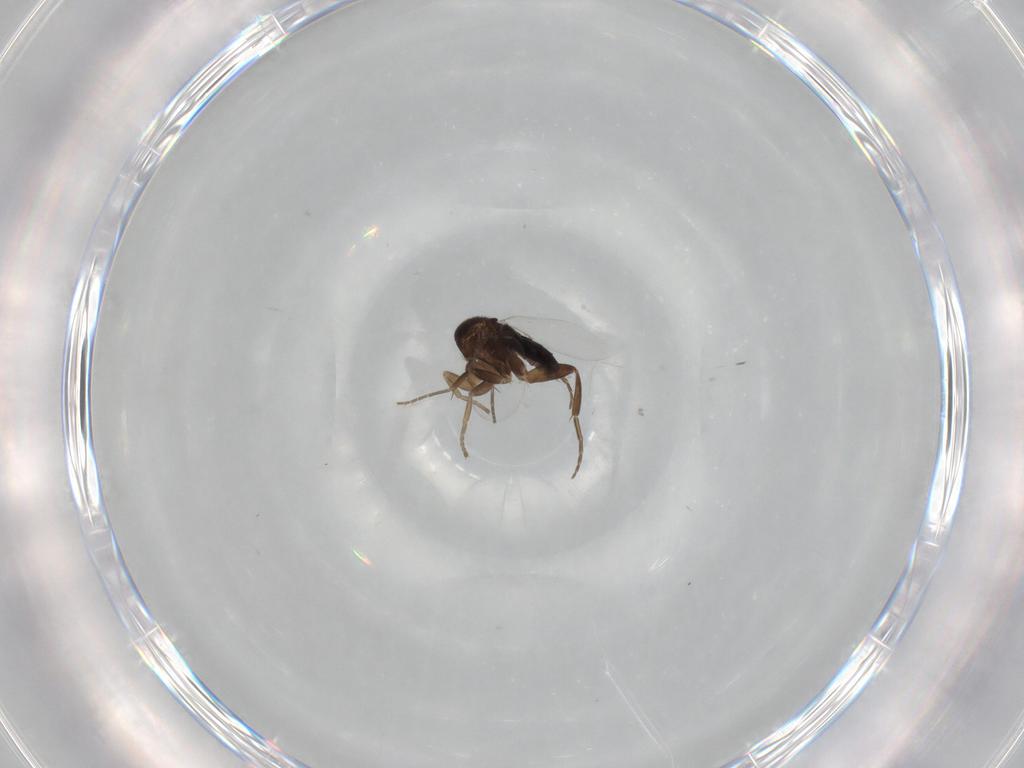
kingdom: Animalia
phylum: Arthropoda
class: Insecta
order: Diptera
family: Phoridae
